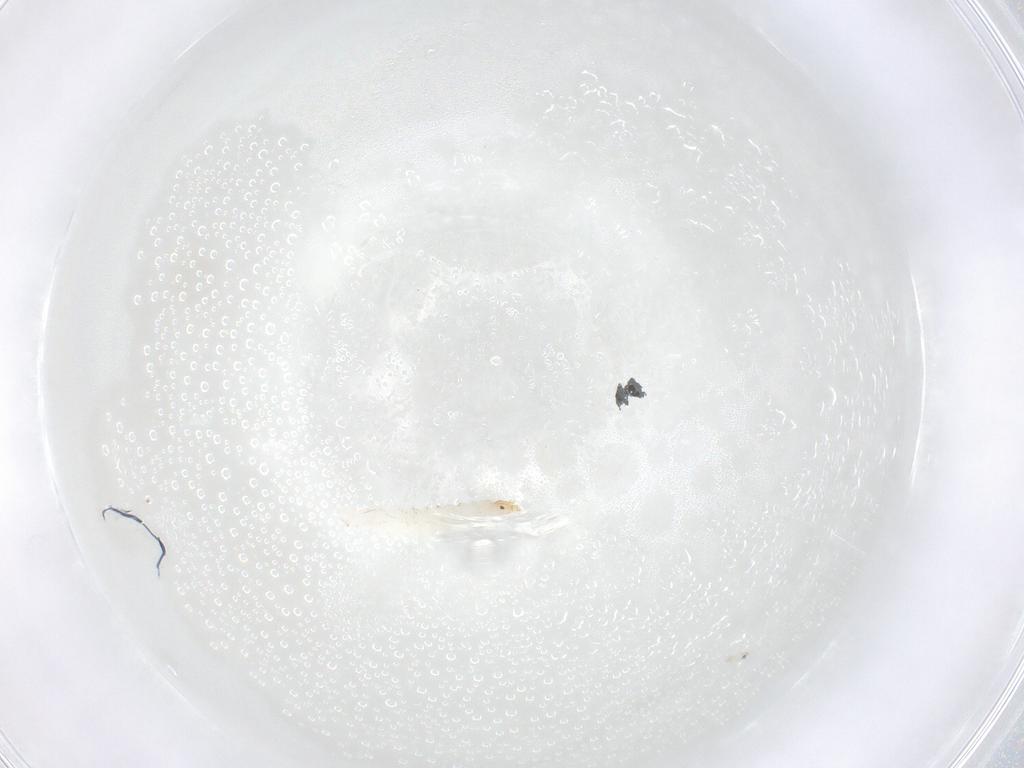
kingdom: Animalia
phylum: Arthropoda
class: Insecta
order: Diptera
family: Stratiomyidae
